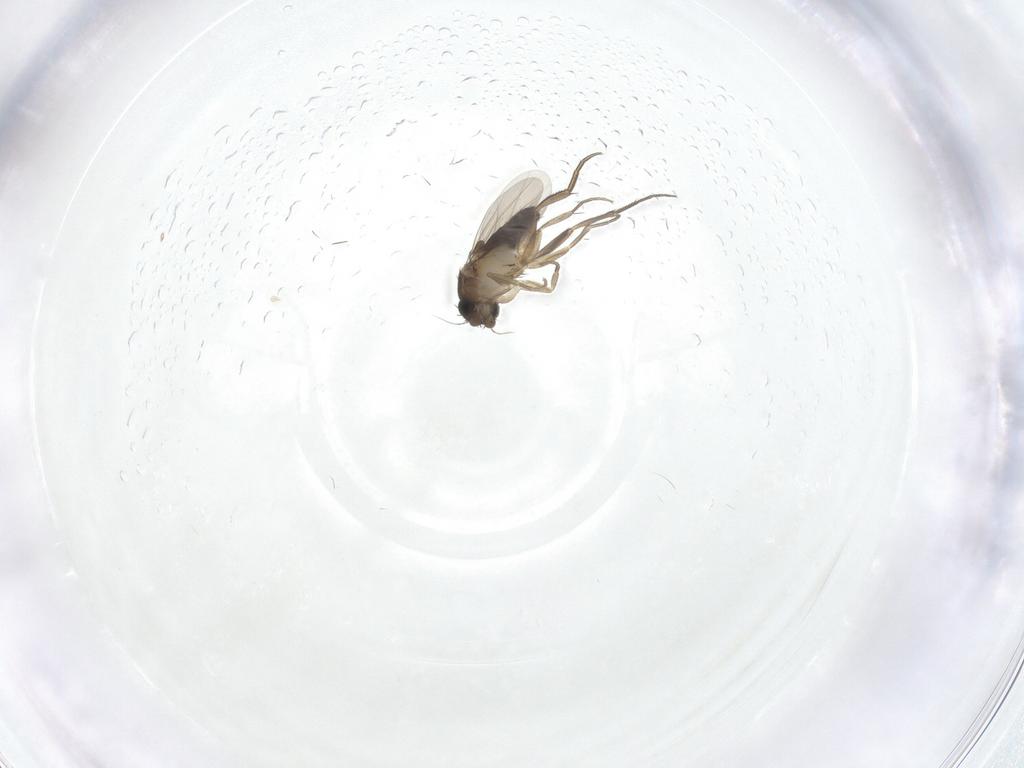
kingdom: Animalia
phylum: Arthropoda
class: Insecta
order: Diptera
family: Phoridae
